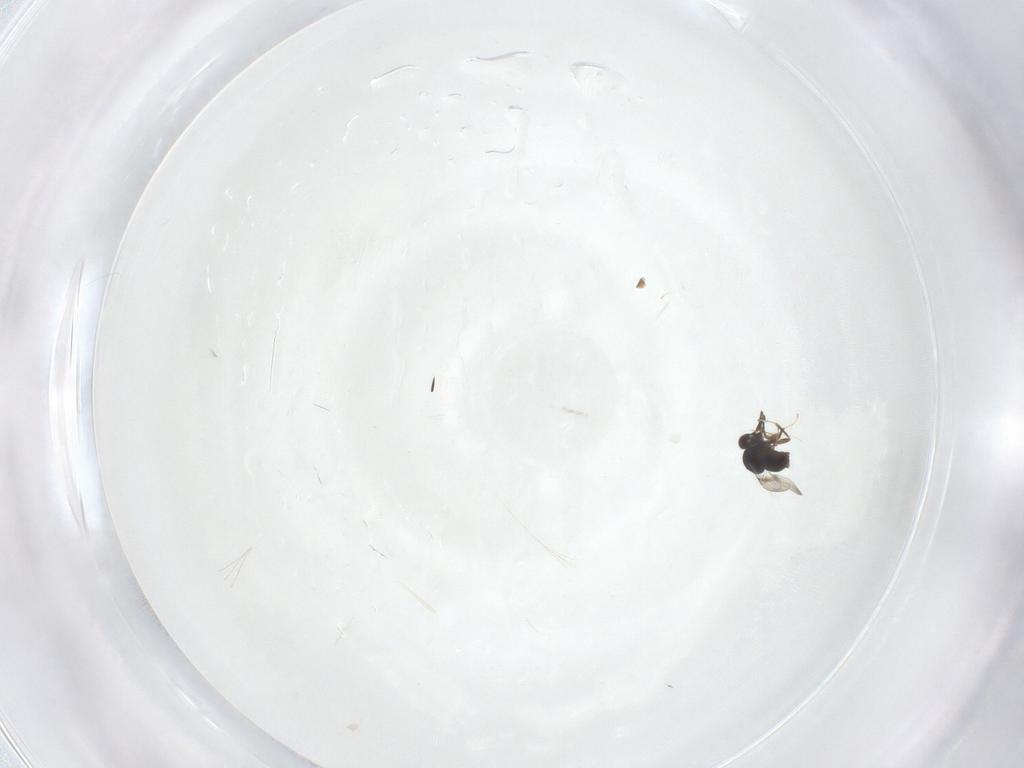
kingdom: Animalia
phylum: Arthropoda
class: Insecta
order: Hymenoptera
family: Ceraphronidae
